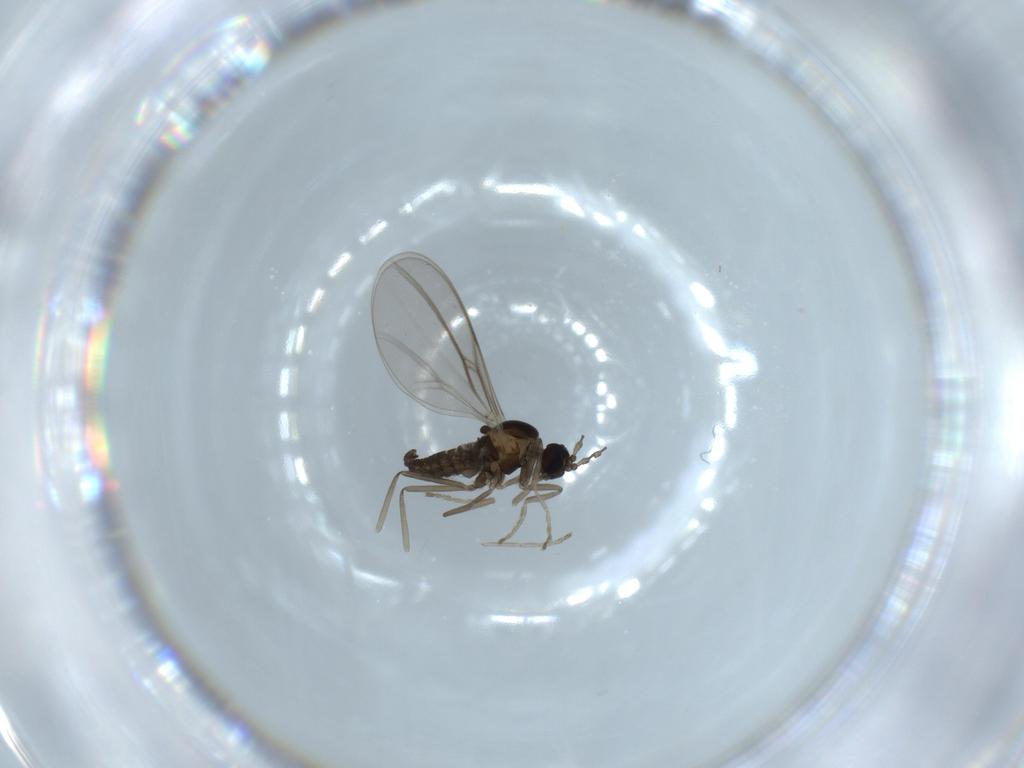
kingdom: Animalia
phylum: Arthropoda
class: Insecta
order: Diptera
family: Cecidomyiidae
